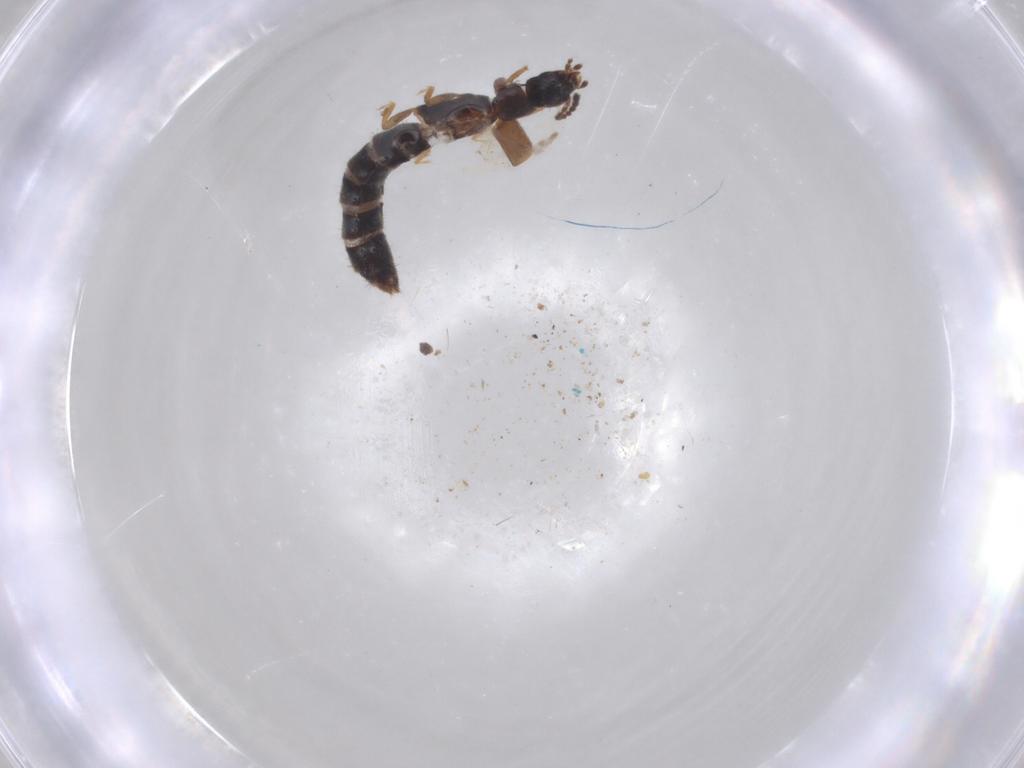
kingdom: Animalia
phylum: Arthropoda
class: Insecta
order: Coleoptera
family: Staphylinidae
